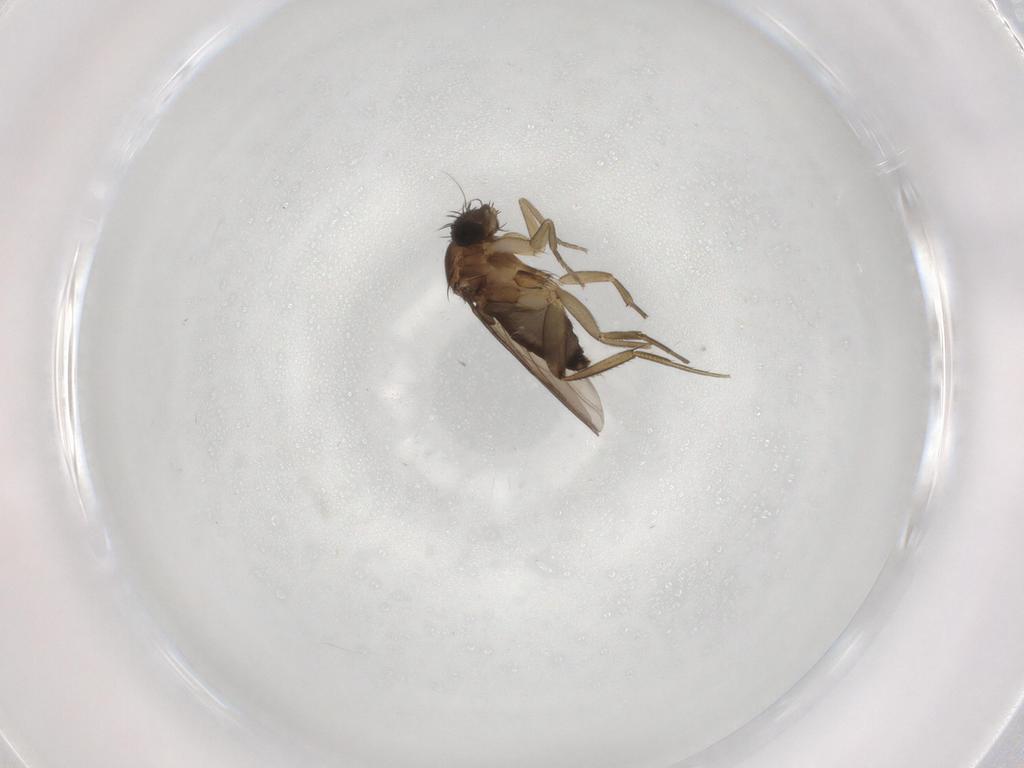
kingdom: Animalia
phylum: Arthropoda
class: Insecta
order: Diptera
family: Phoridae
